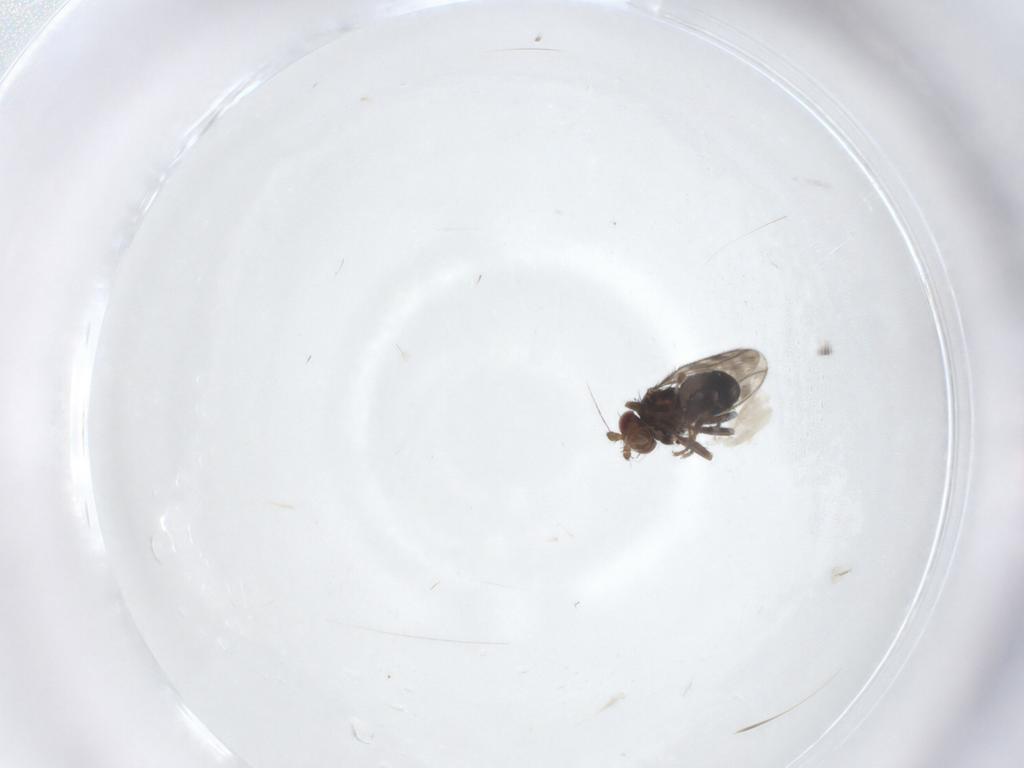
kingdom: Animalia
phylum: Arthropoda
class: Insecta
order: Diptera
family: Sphaeroceridae
